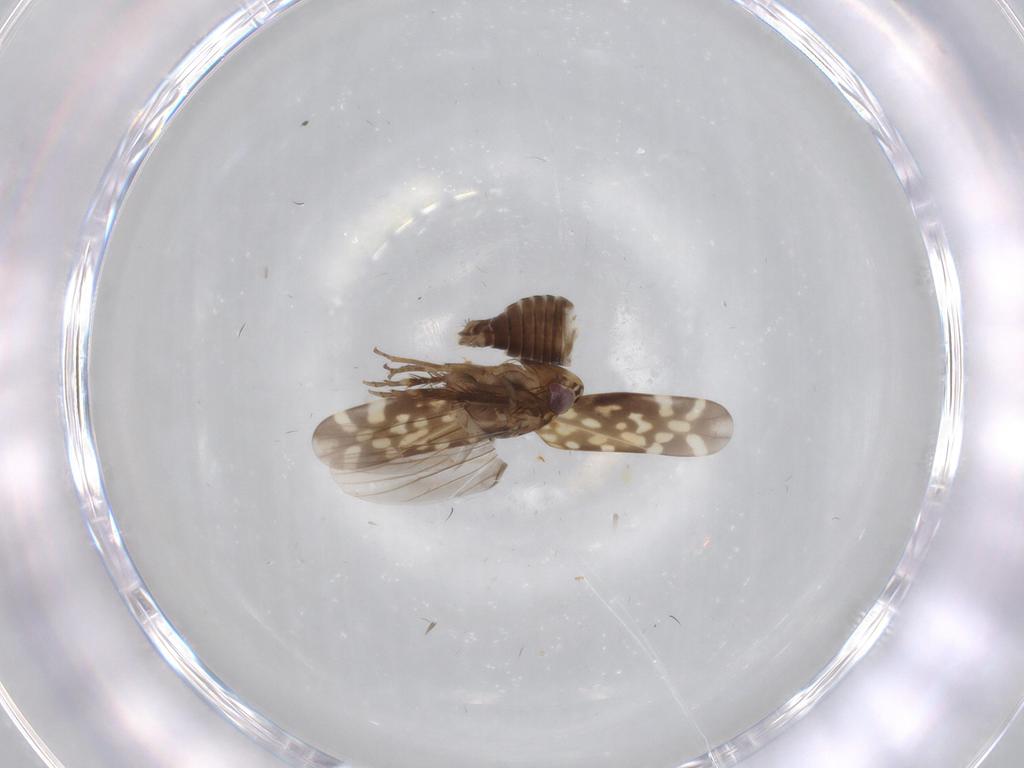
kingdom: Animalia
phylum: Arthropoda
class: Insecta
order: Hemiptera
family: Cicadellidae
